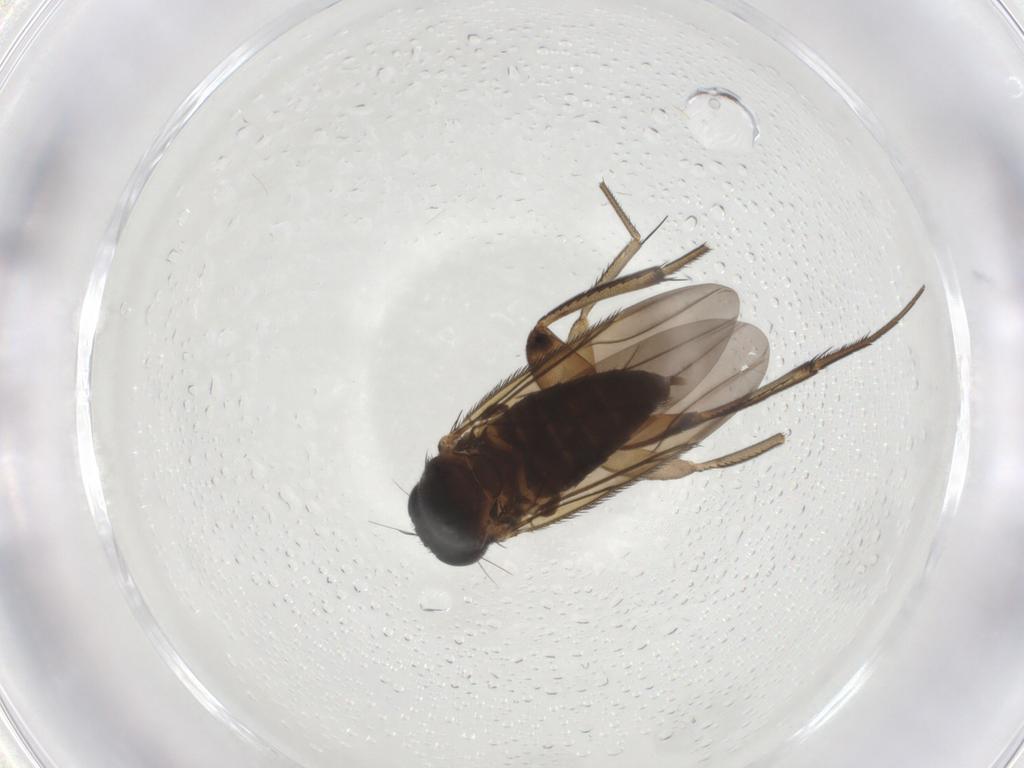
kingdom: Animalia
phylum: Arthropoda
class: Insecta
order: Diptera
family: Phoridae
